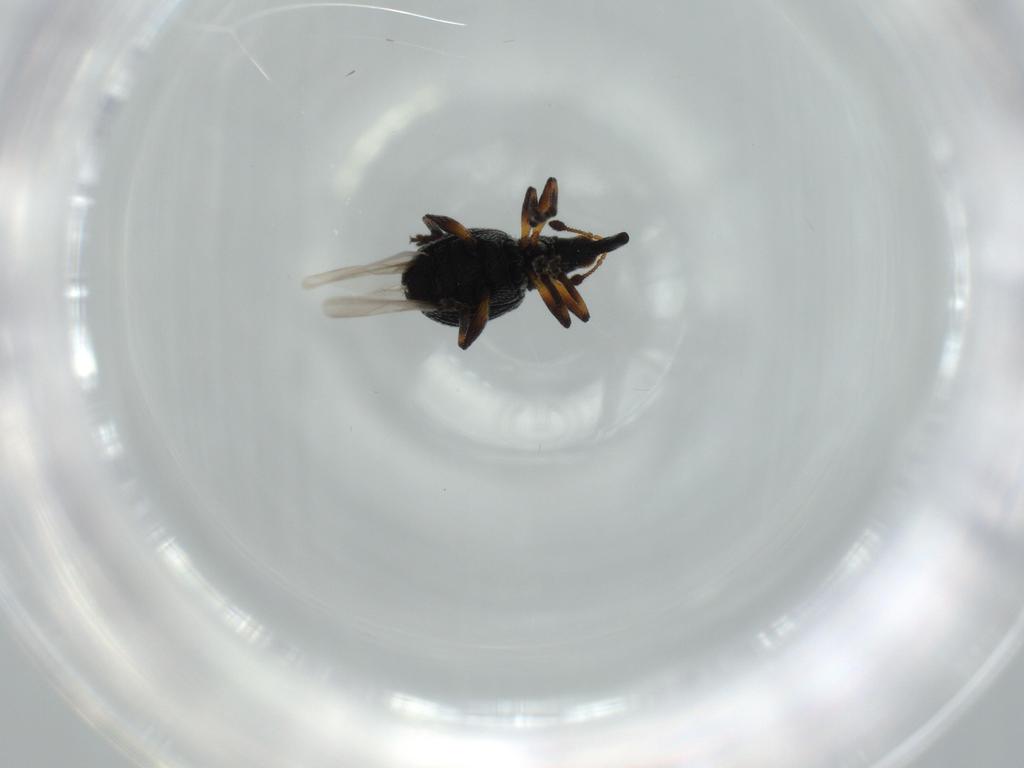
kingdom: Animalia
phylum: Arthropoda
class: Insecta
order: Coleoptera
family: Brentidae
